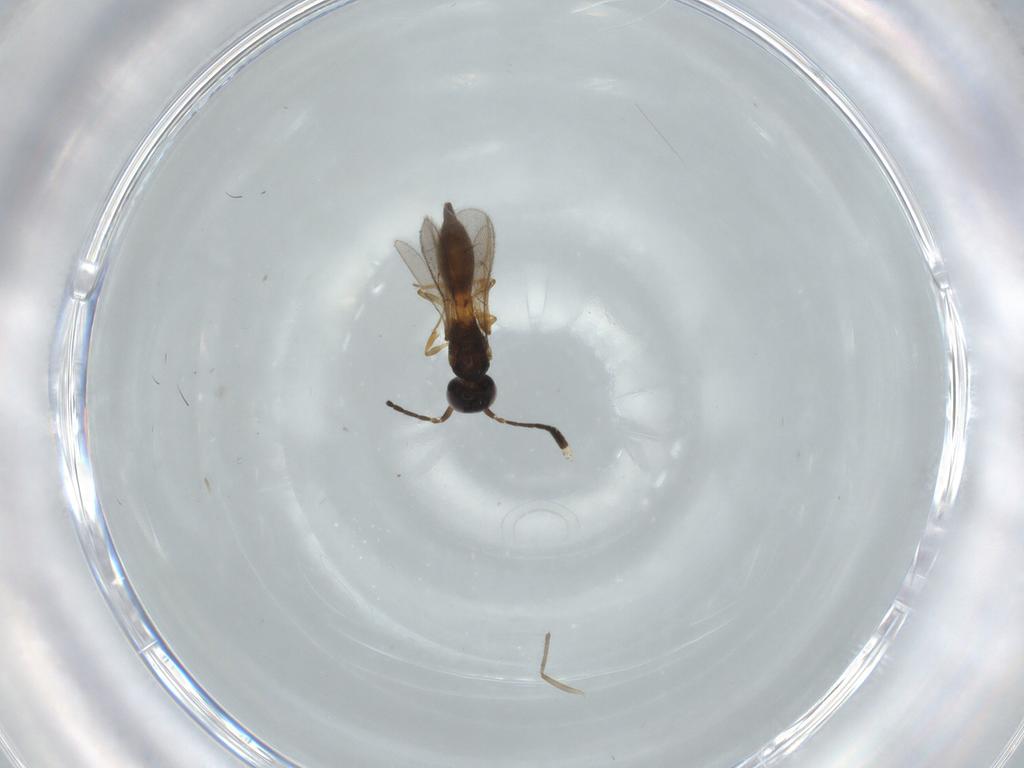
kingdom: Animalia
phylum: Arthropoda
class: Insecta
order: Hymenoptera
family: Scelionidae
